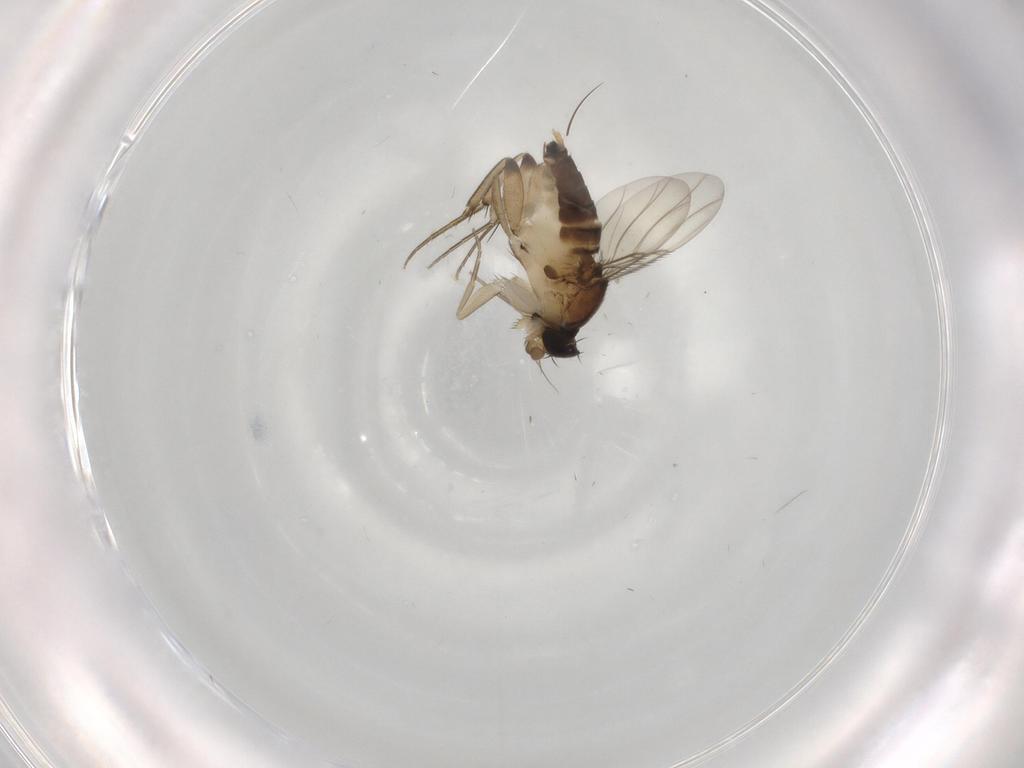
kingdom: Animalia
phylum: Arthropoda
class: Insecta
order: Diptera
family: Phoridae
